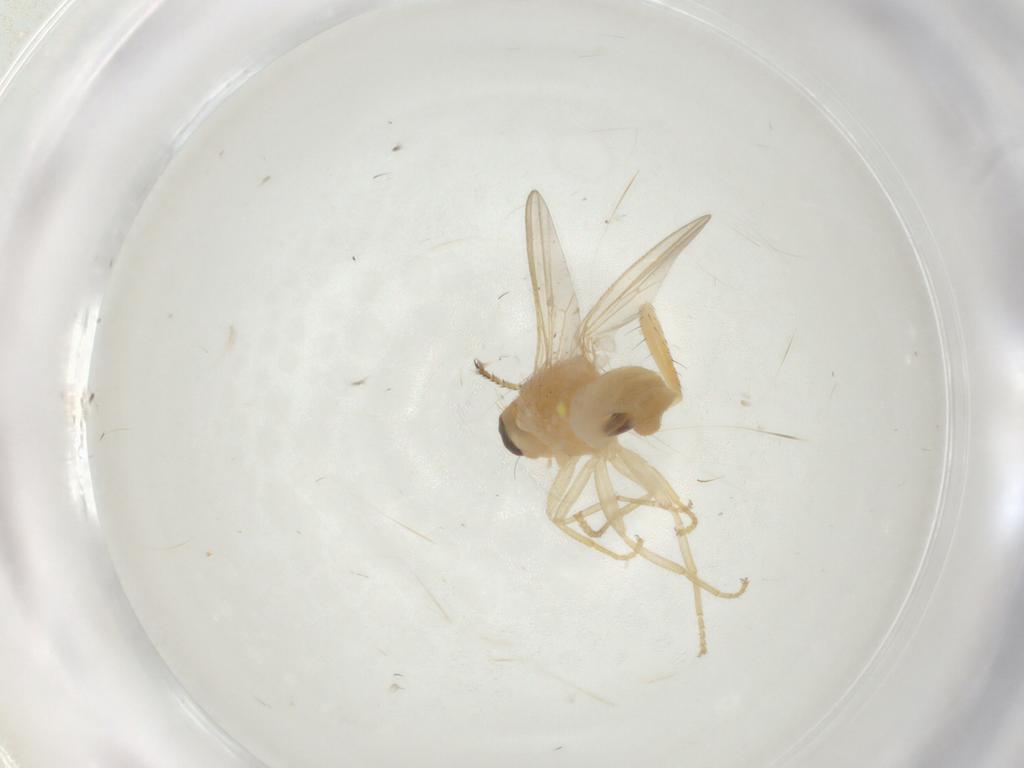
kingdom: Animalia
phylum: Arthropoda
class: Insecta
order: Diptera
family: Chyromyidae
